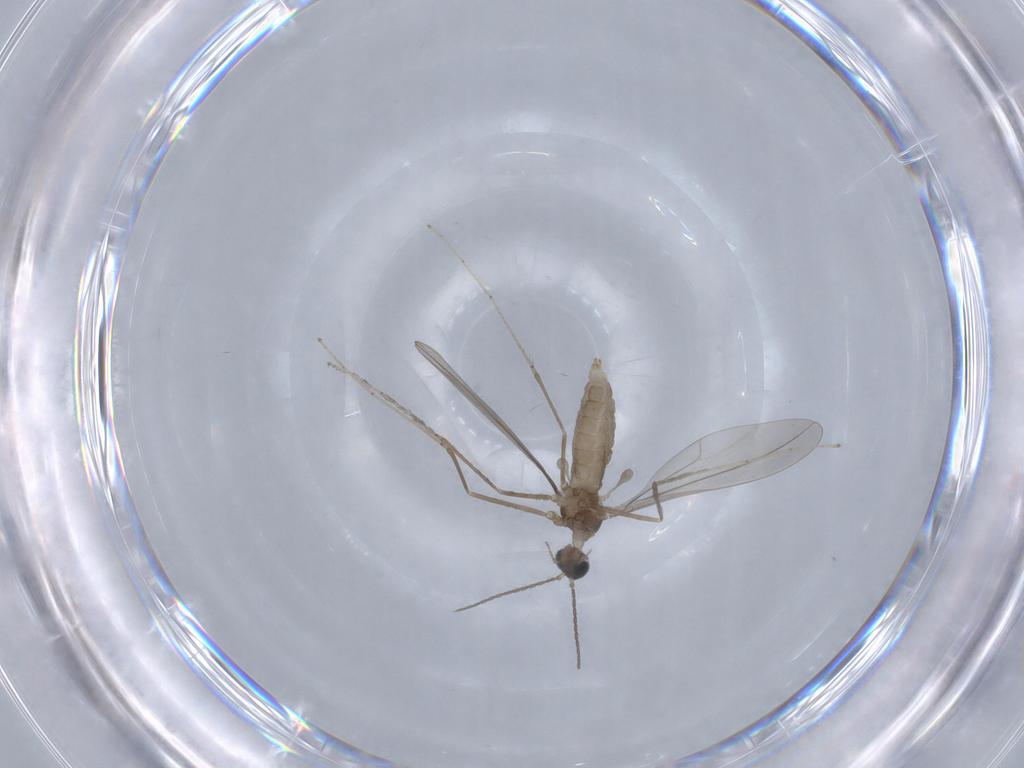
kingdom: Animalia
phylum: Arthropoda
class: Insecta
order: Diptera
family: Cecidomyiidae
